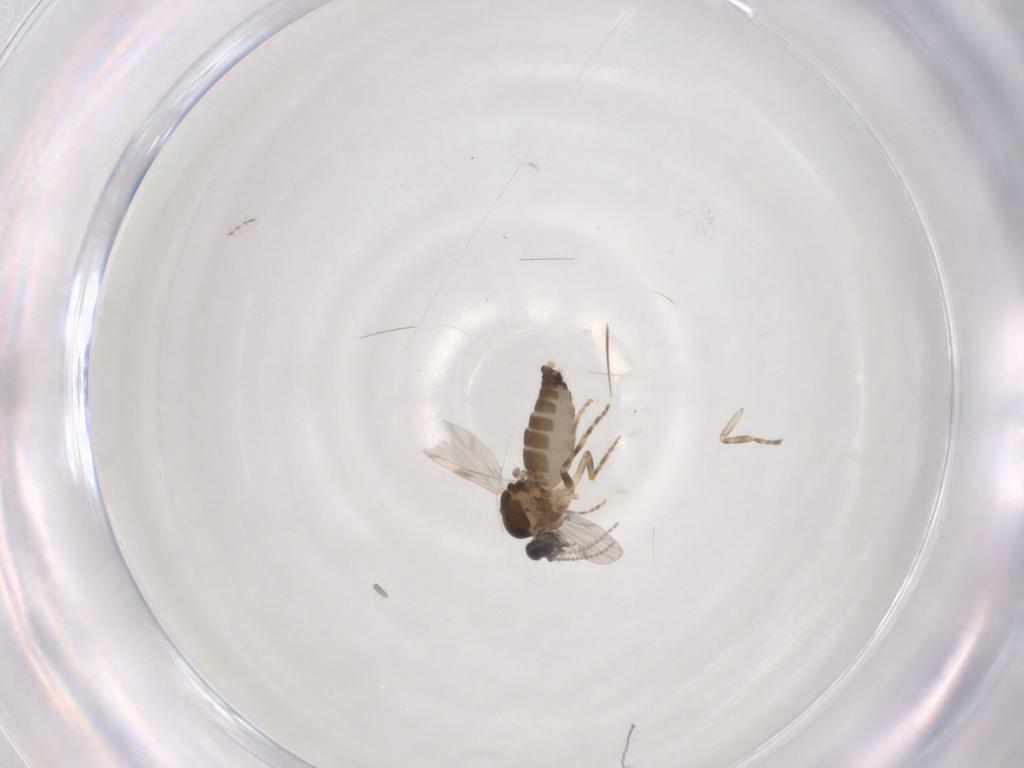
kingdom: Animalia
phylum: Arthropoda
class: Insecta
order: Diptera
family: Ceratopogonidae
